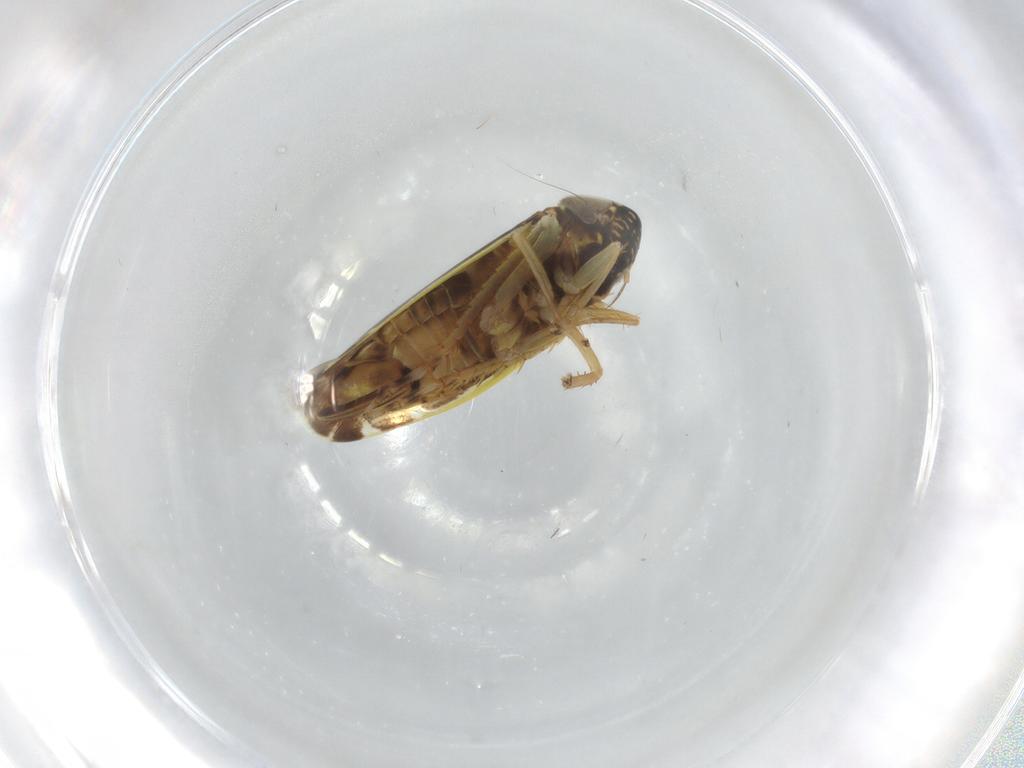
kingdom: Animalia
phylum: Arthropoda
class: Insecta
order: Hemiptera
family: Cicadellidae
